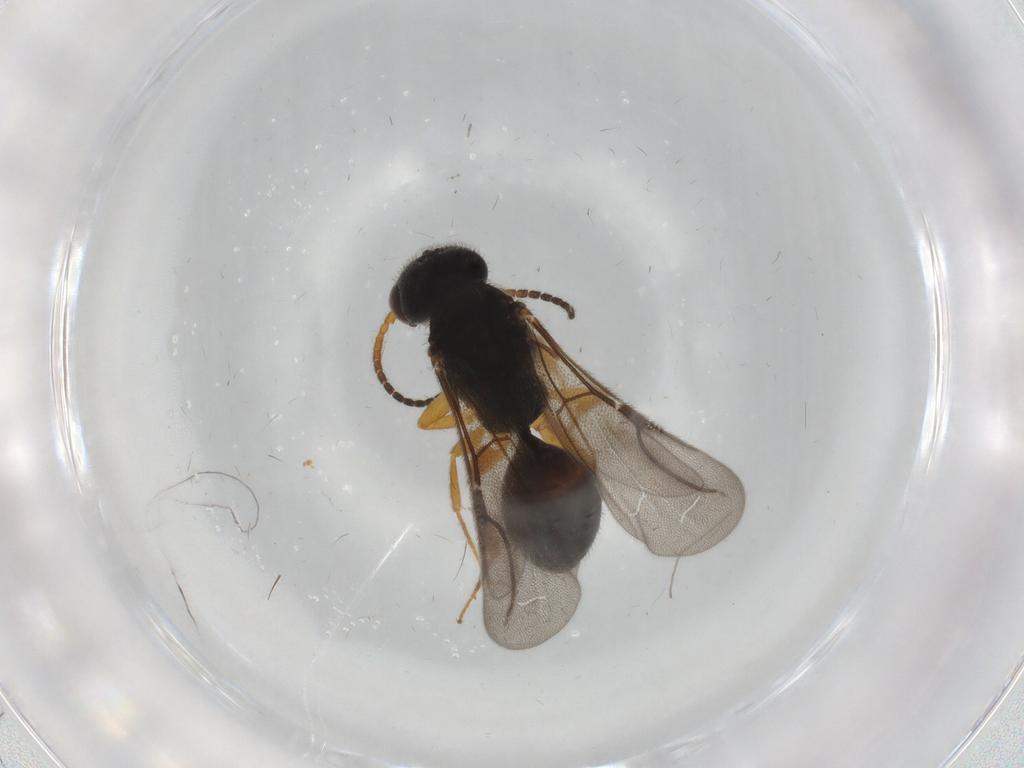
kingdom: Animalia
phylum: Arthropoda
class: Insecta
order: Hymenoptera
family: Bethylidae
